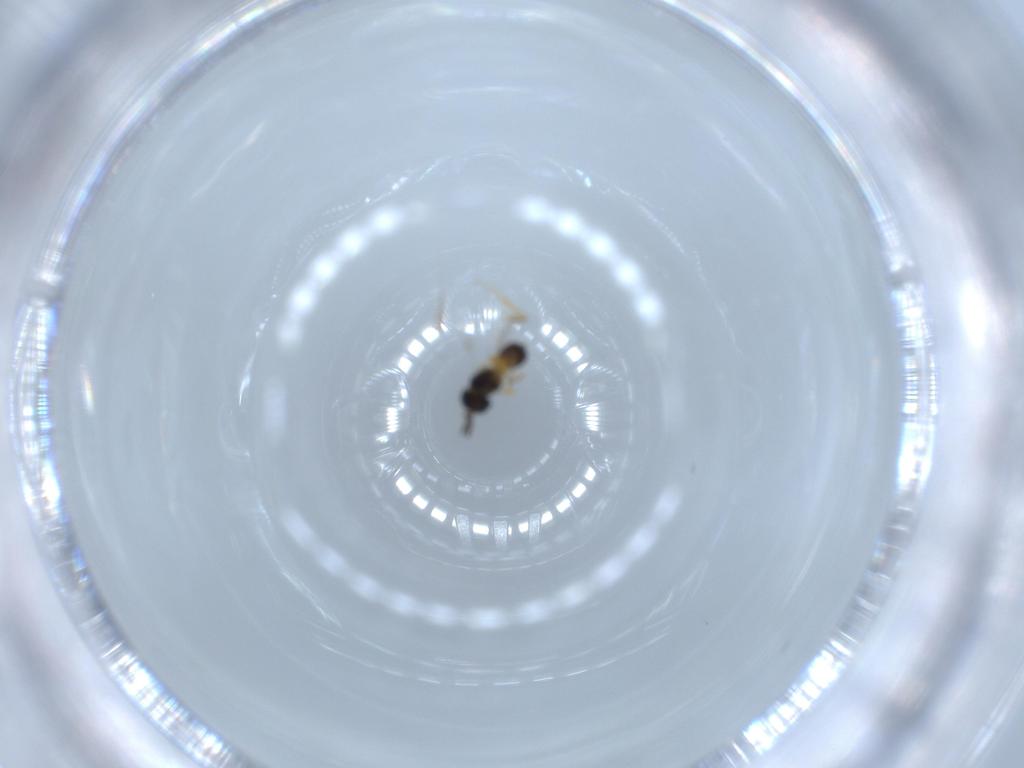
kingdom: Animalia
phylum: Arthropoda
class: Insecta
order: Hymenoptera
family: Scelionidae
